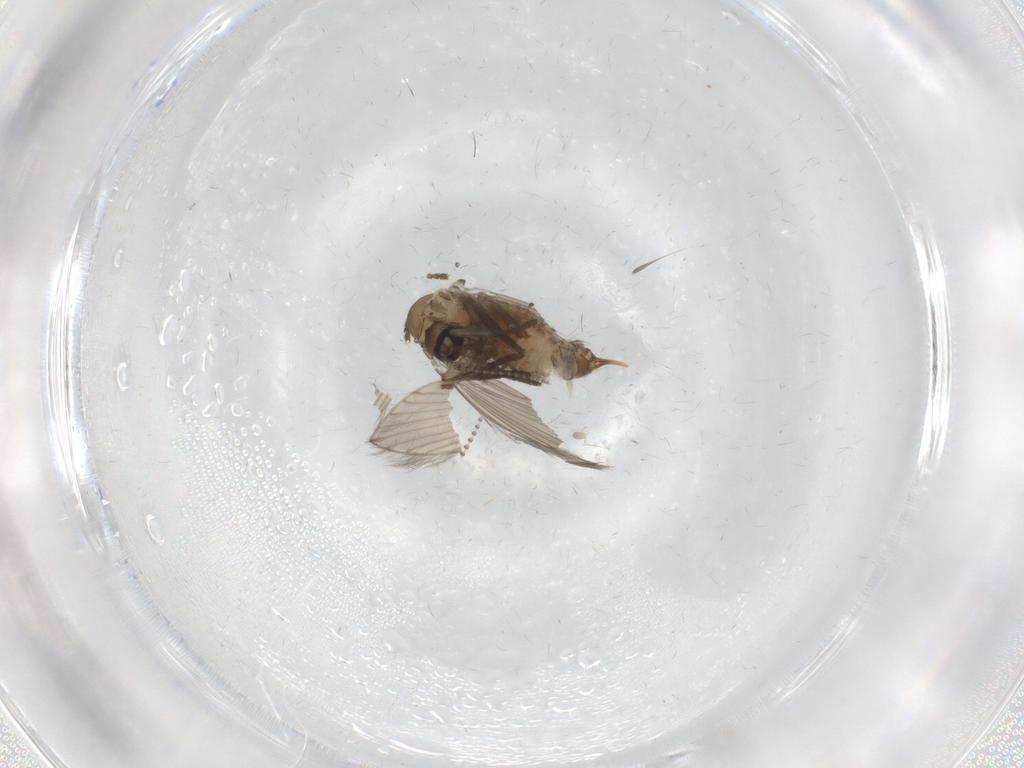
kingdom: Animalia
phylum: Arthropoda
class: Insecta
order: Diptera
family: Cecidomyiidae
